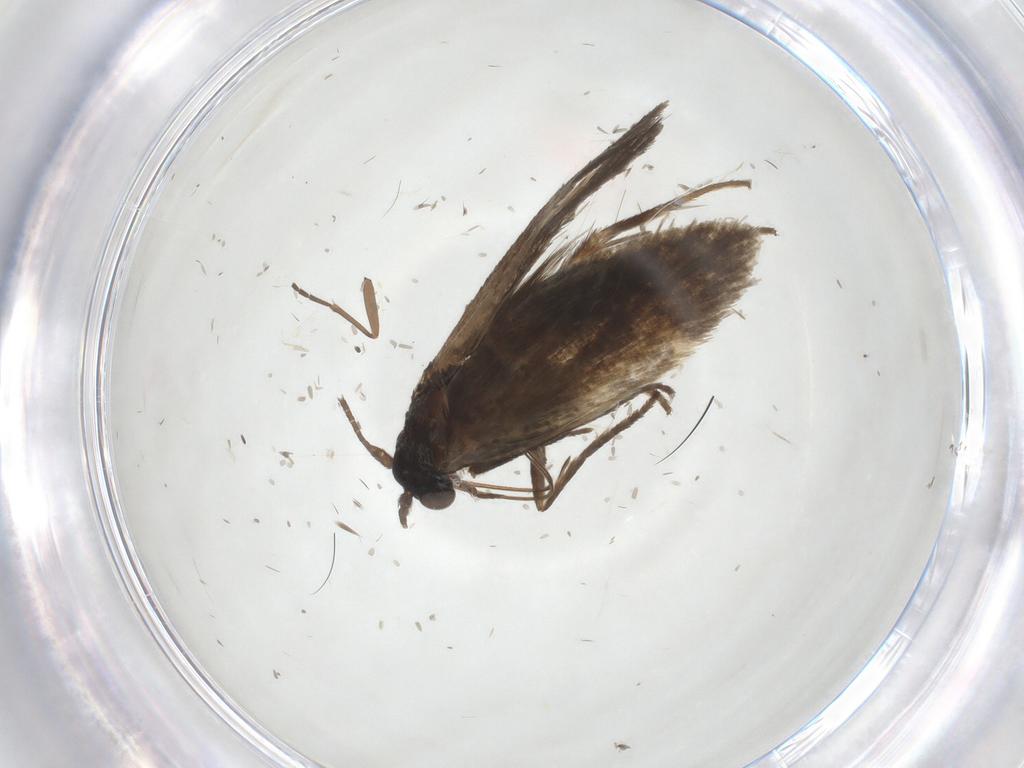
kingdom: Animalia
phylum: Arthropoda
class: Insecta
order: Lepidoptera
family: Adelidae
